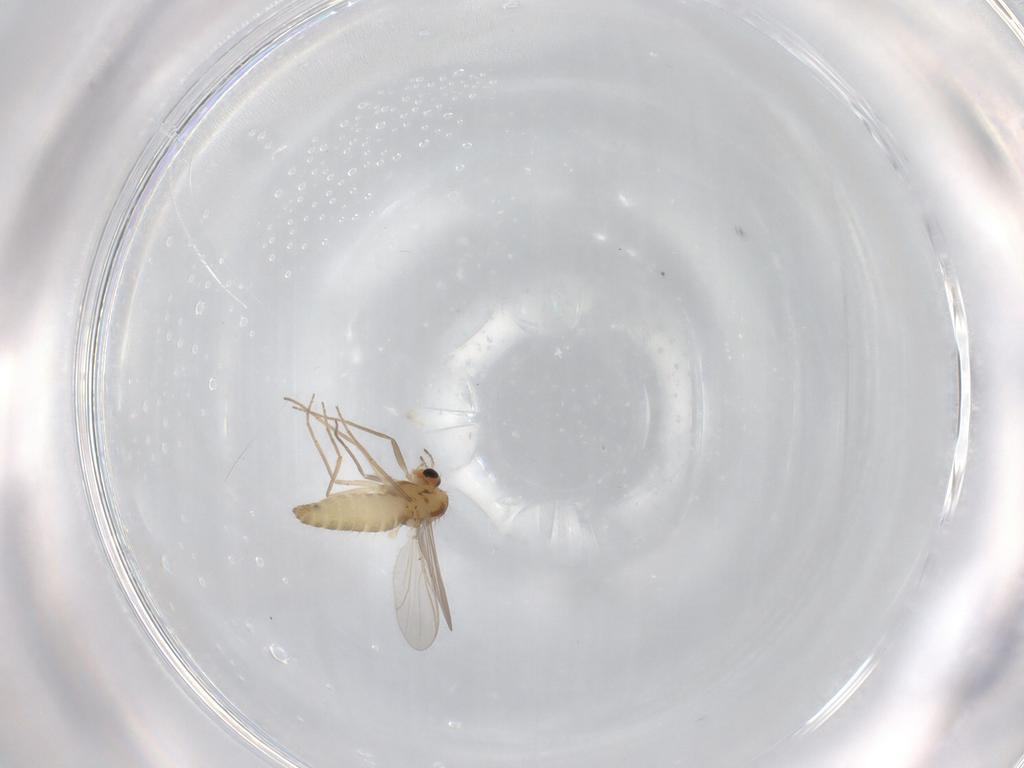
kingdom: Animalia
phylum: Arthropoda
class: Insecta
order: Diptera
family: Chironomidae
